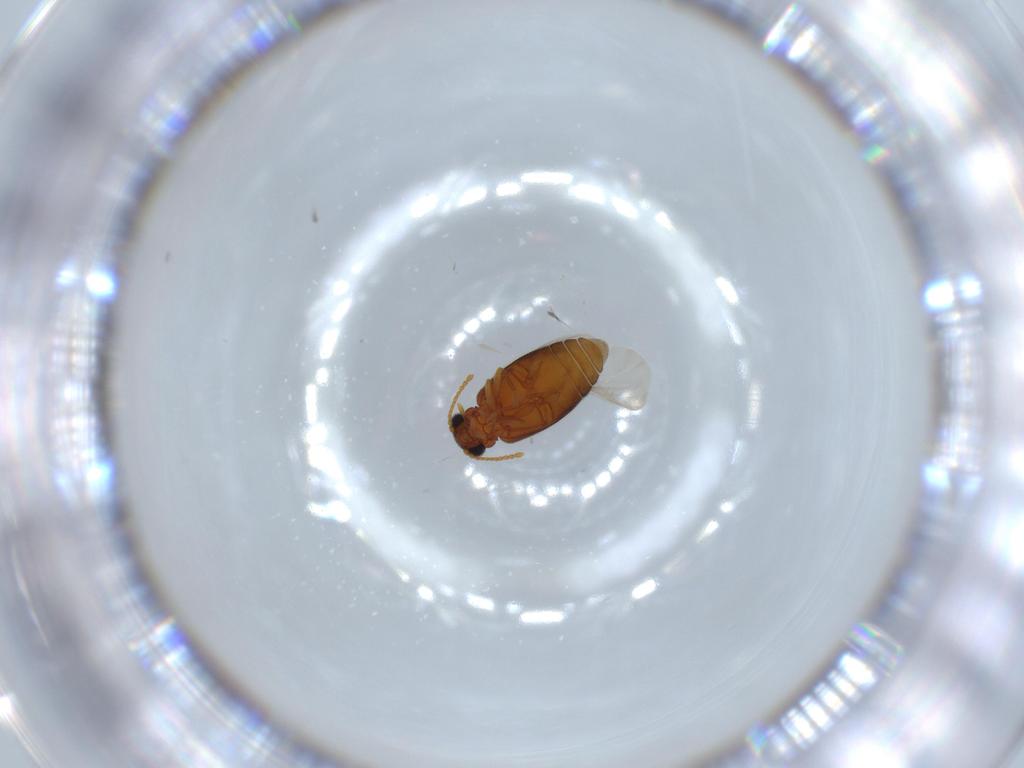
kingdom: Animalia
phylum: Arthropoda
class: Insecta
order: Coleoptera
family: Aderidae
